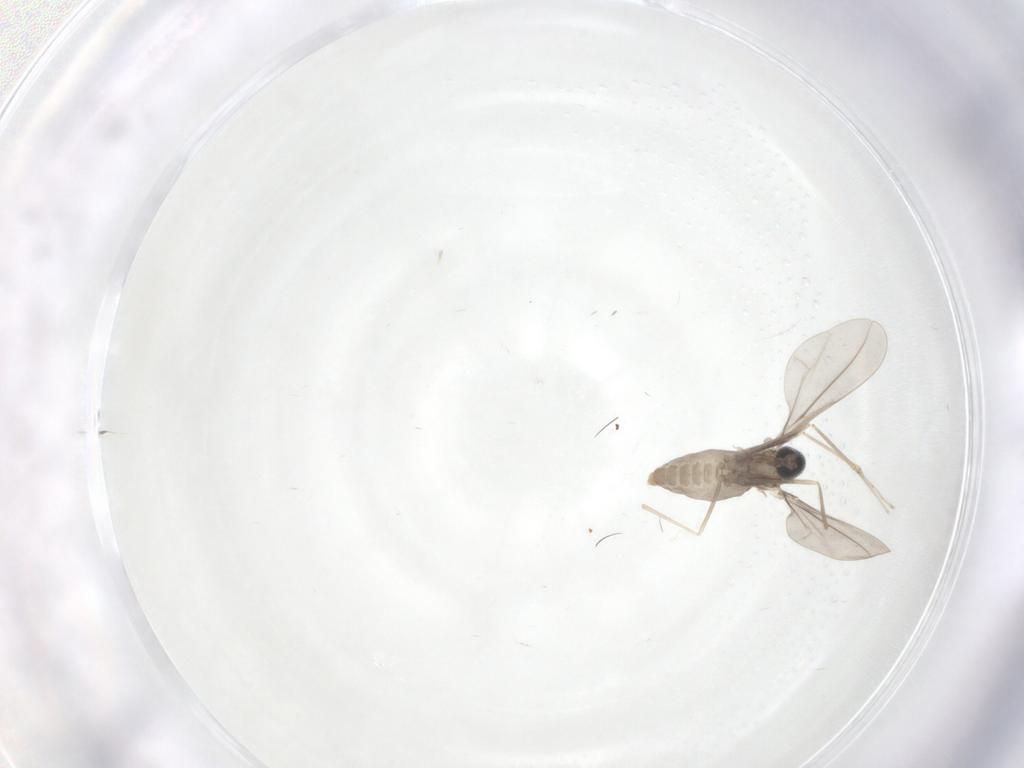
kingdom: Animalia
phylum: Arthropoda
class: Insecta
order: Diptera
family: Cecidomyiidae
